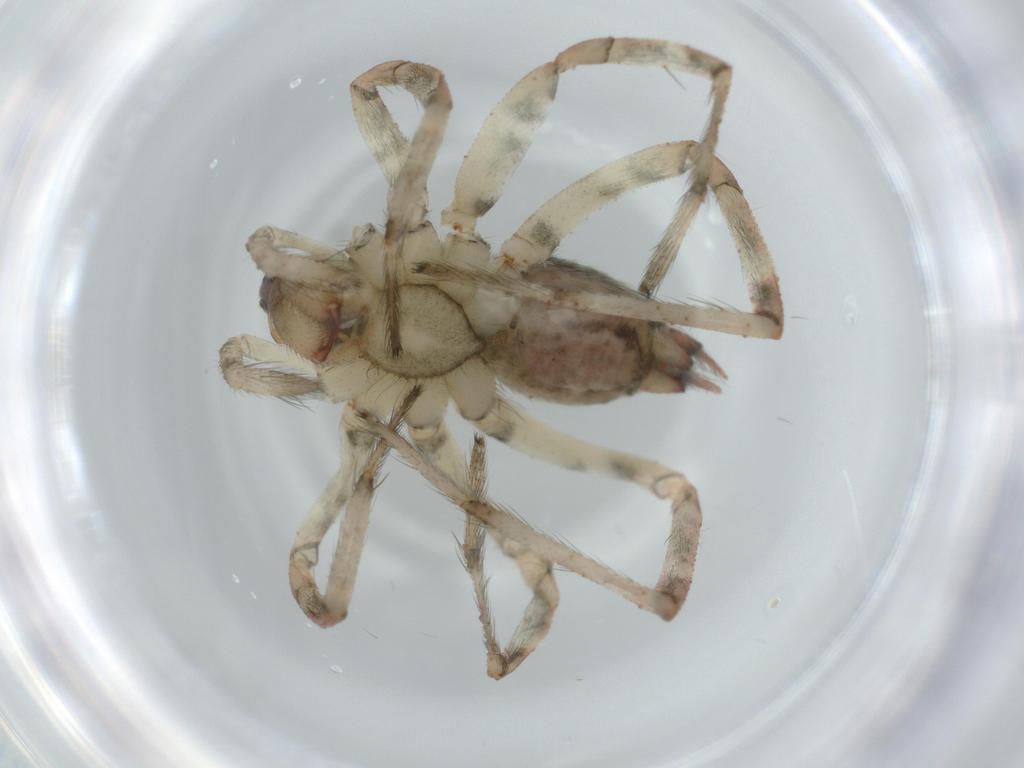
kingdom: Animalia
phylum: Arthropoda
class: Arachnida
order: Araneae
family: Agelenidae
